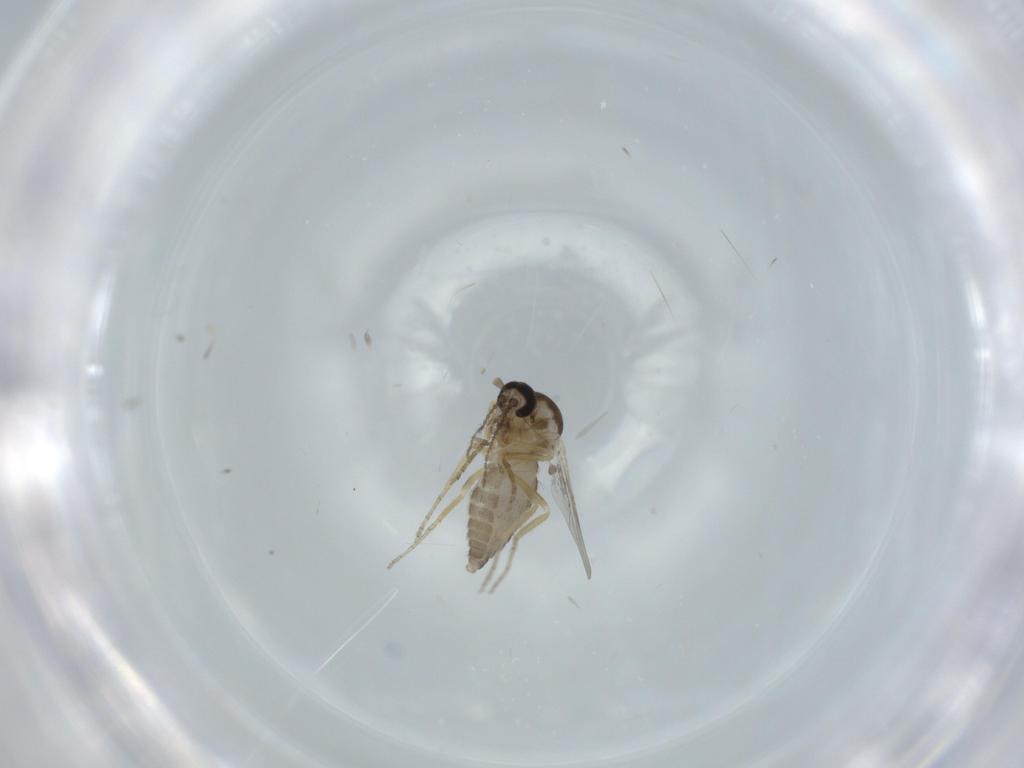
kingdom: Animalia
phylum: Arthropoda
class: Insecta
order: Diptera
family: Ceratopogonidae
